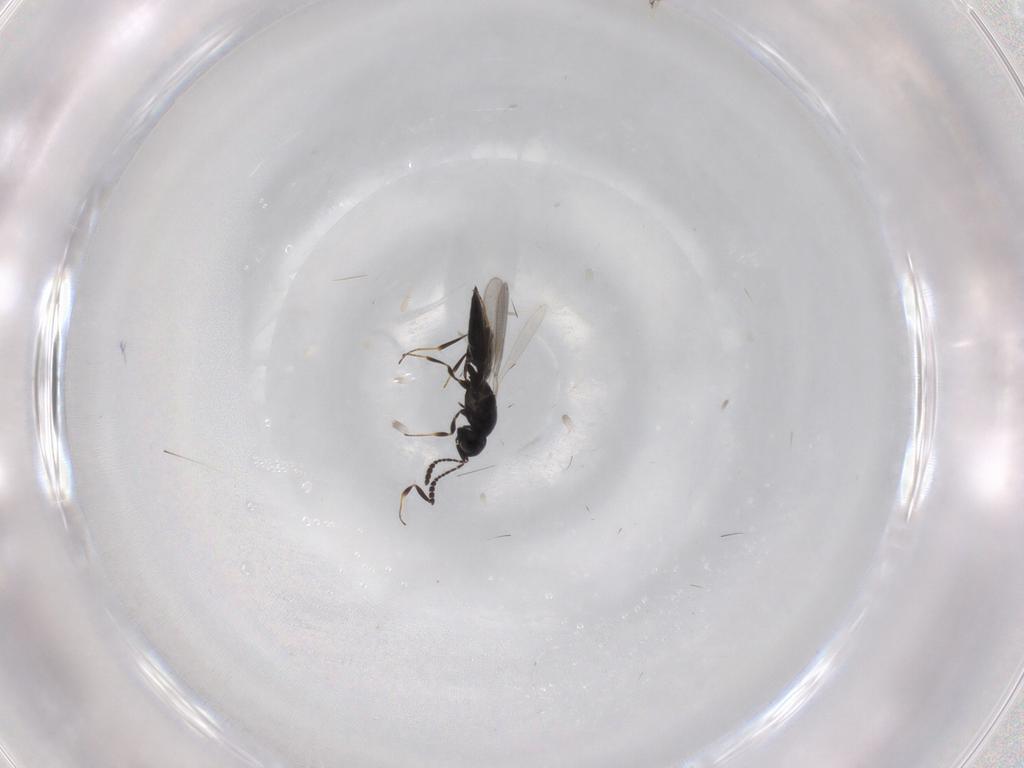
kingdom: Animalia
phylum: Arthropoda
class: Insecta
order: Hymenoptera
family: Scelionidae
